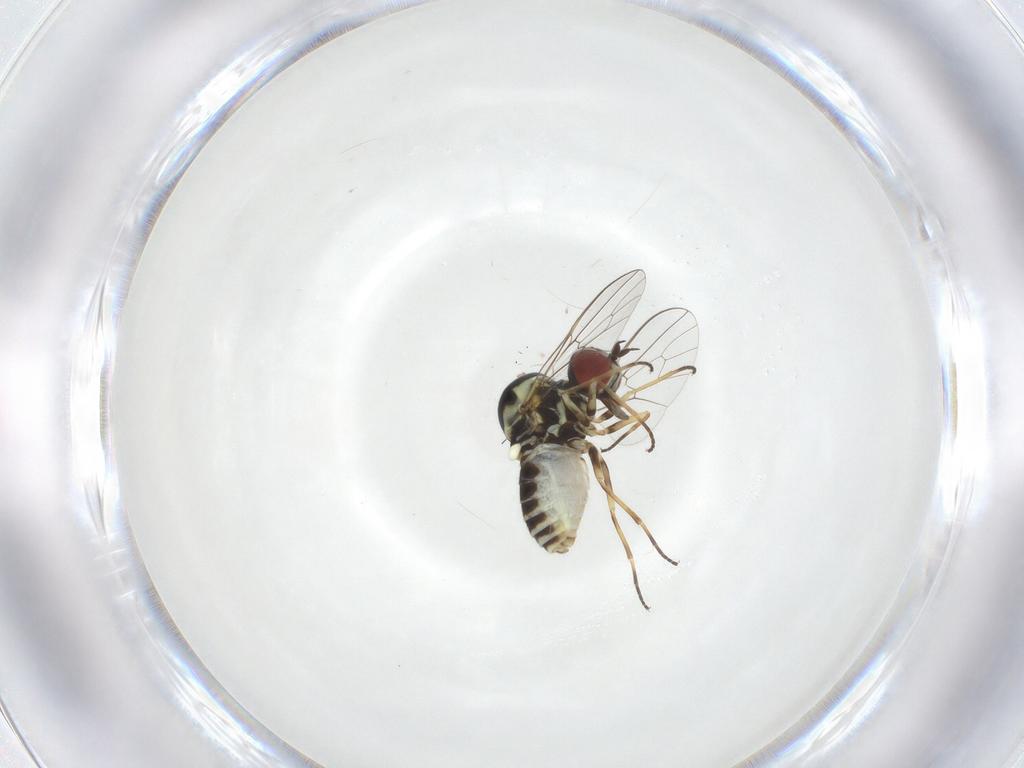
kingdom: Animalia
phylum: Arthropoda
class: Insecta
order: Diptera
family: Bombyliidae
